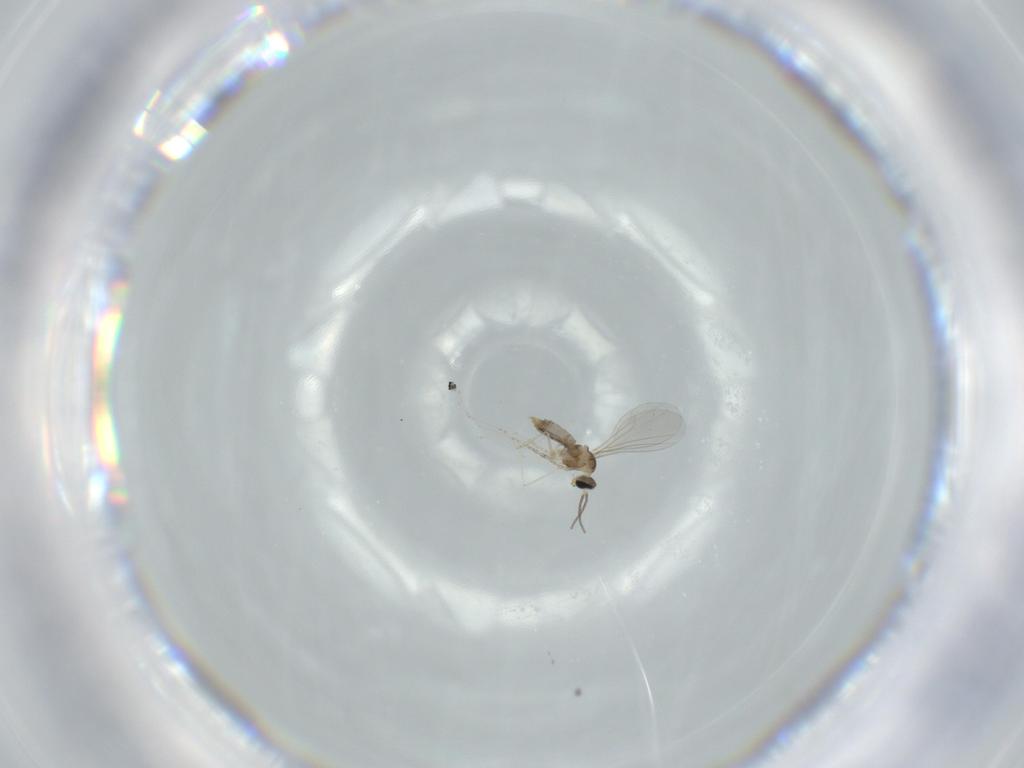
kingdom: Animalia
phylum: Arthropoda
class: Insecta
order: Diptera
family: Cecidomyiidae
